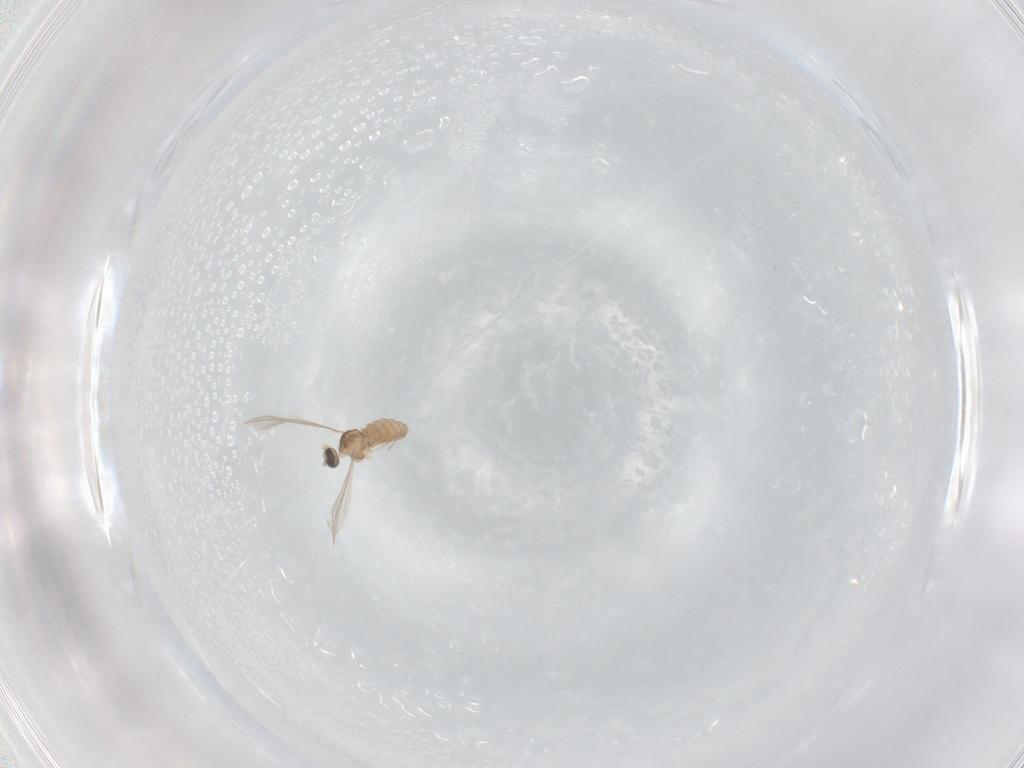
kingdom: Animalia
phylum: Arthropoda
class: Insecta
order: Diptera
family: Cecidomyiidae
